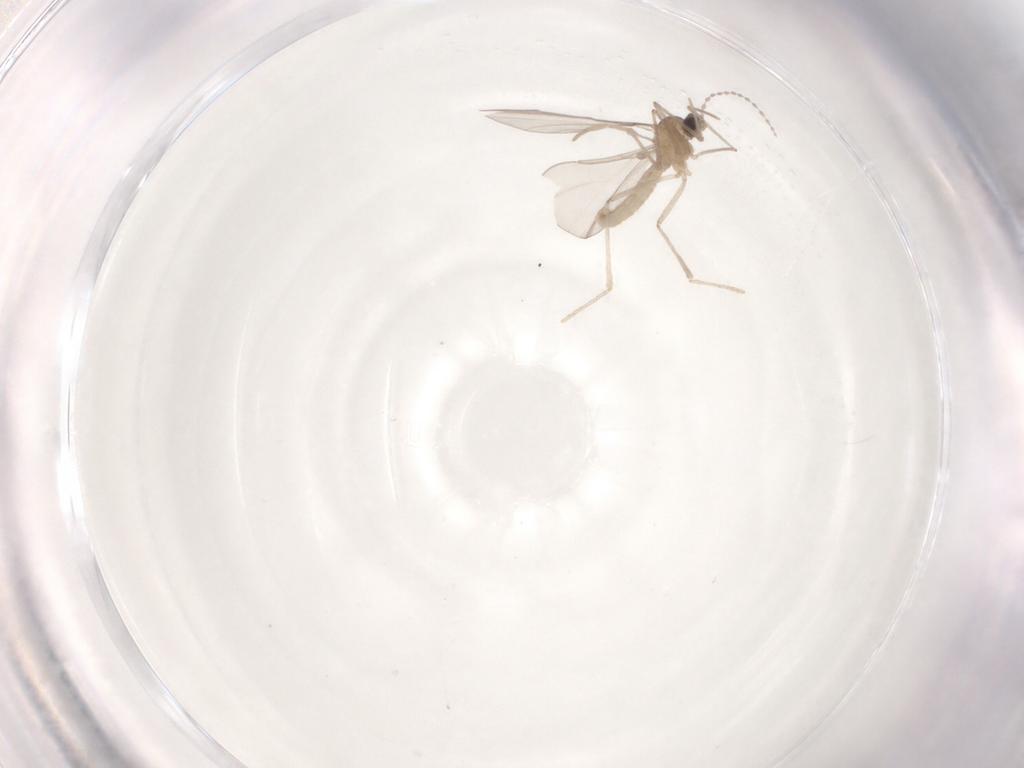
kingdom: Animalia
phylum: Arthropoda
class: Insecta
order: Diptera
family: Cecidomyiidae
